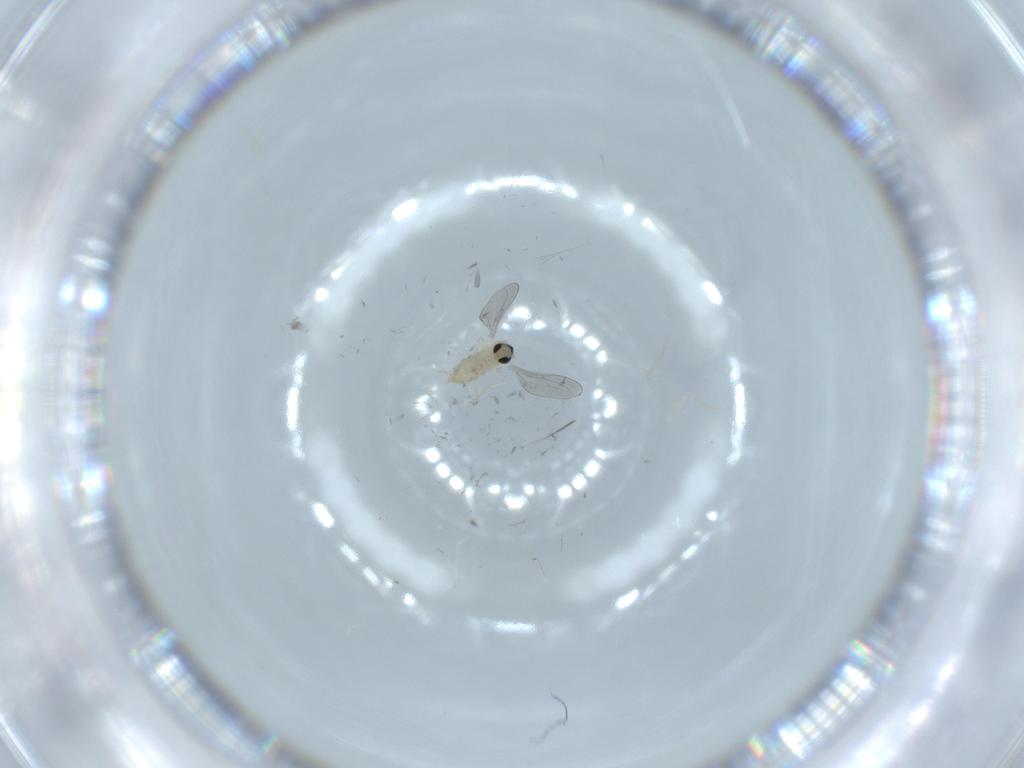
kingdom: Animalia
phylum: Arthropoda
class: Insecta
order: Diptera
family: Cecidomyiidae
